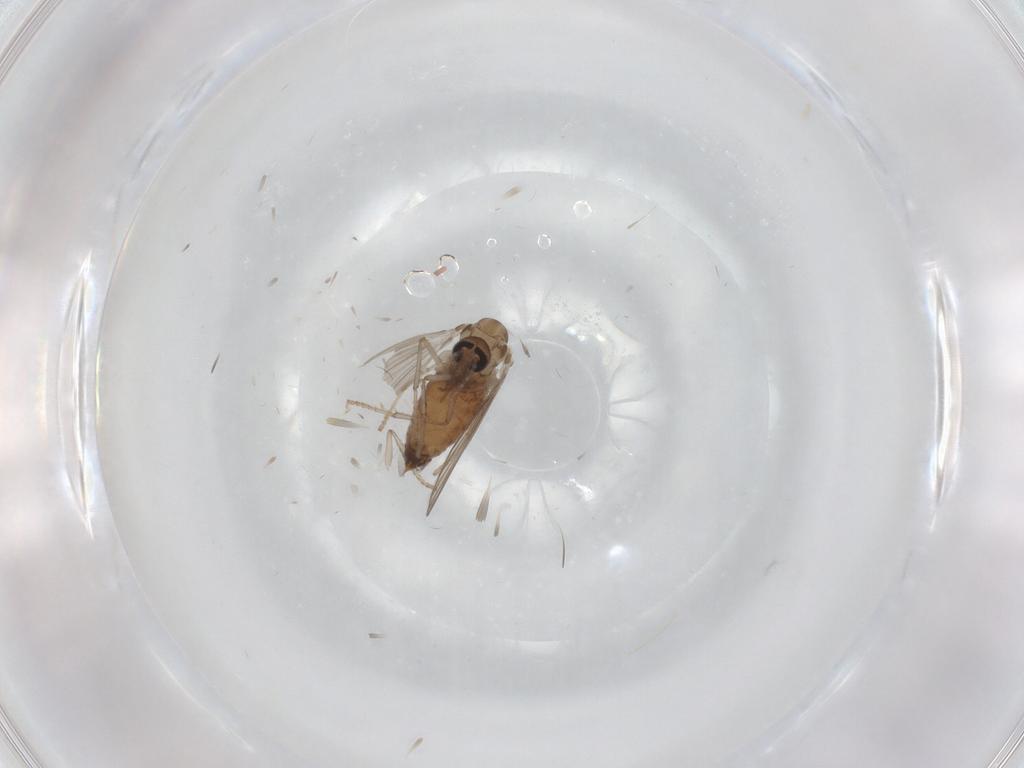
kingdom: Animalia
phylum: Arthropoda
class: Insecta
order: Diptera
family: Psychodidae
